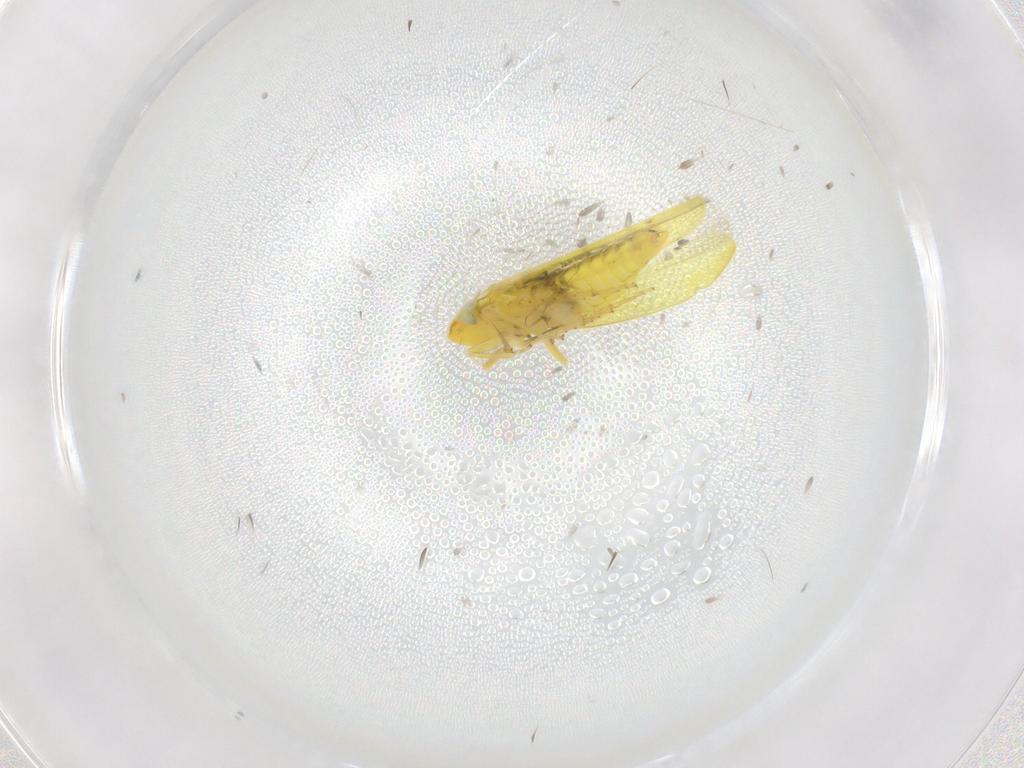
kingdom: Animalia
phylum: Arthropoda
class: Insecta
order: Hemiptera
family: Cicadellidae
